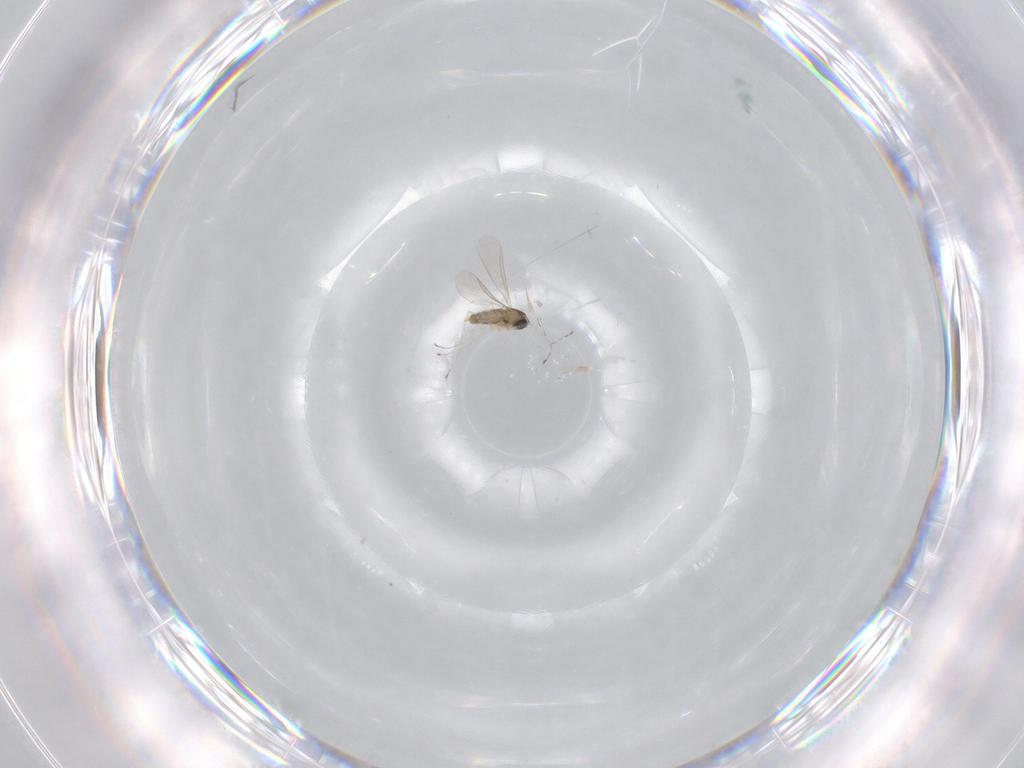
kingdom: Animalia
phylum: Arthropoda
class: Insecta
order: Diptera
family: Cecidomyiidae
